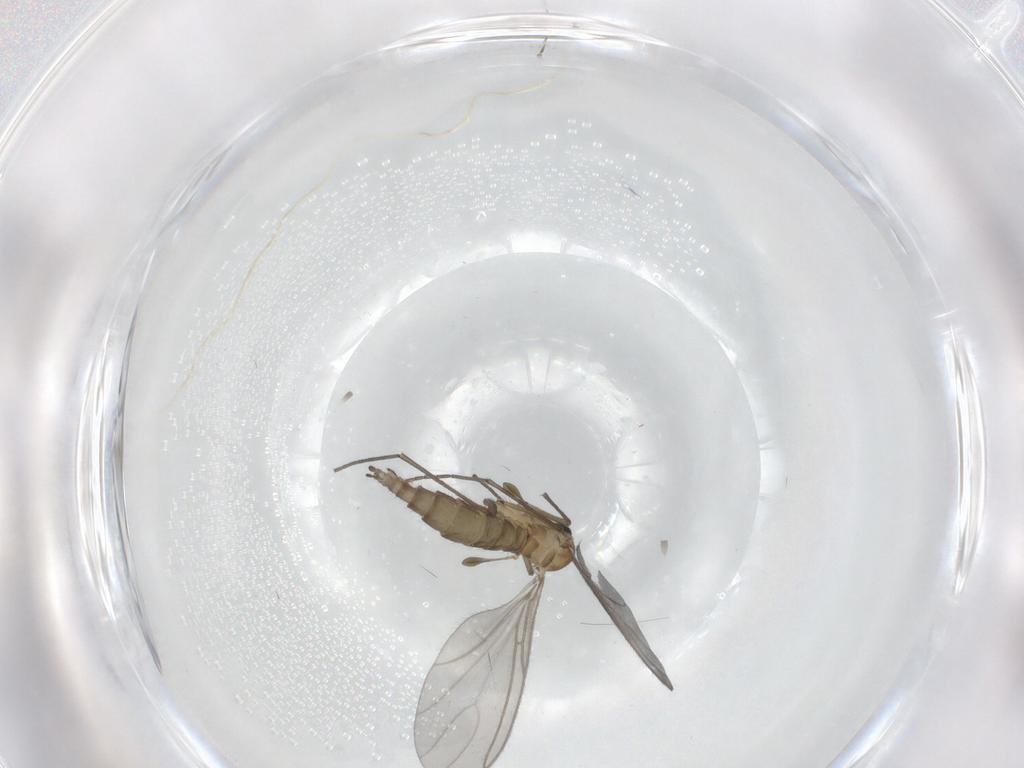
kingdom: Animalia
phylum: Arthropoda
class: Insecta
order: Diptera
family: Sciaridae
